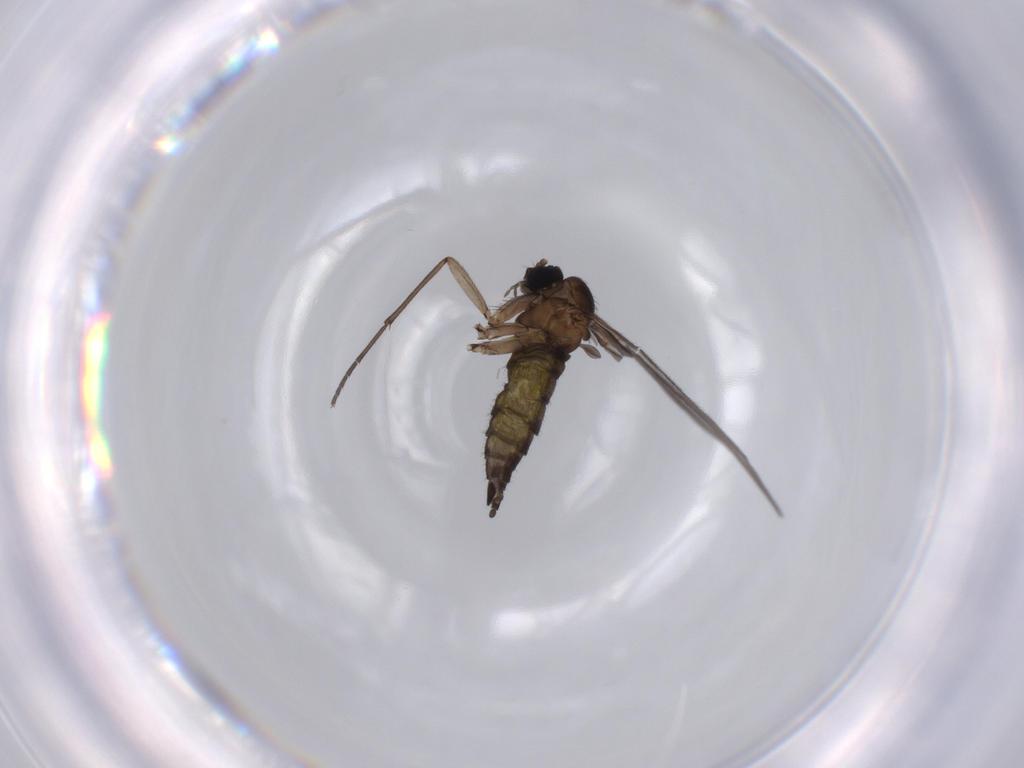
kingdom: Animalia
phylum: Arthropoda
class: Insecta
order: Diptera
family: Sciaridae
